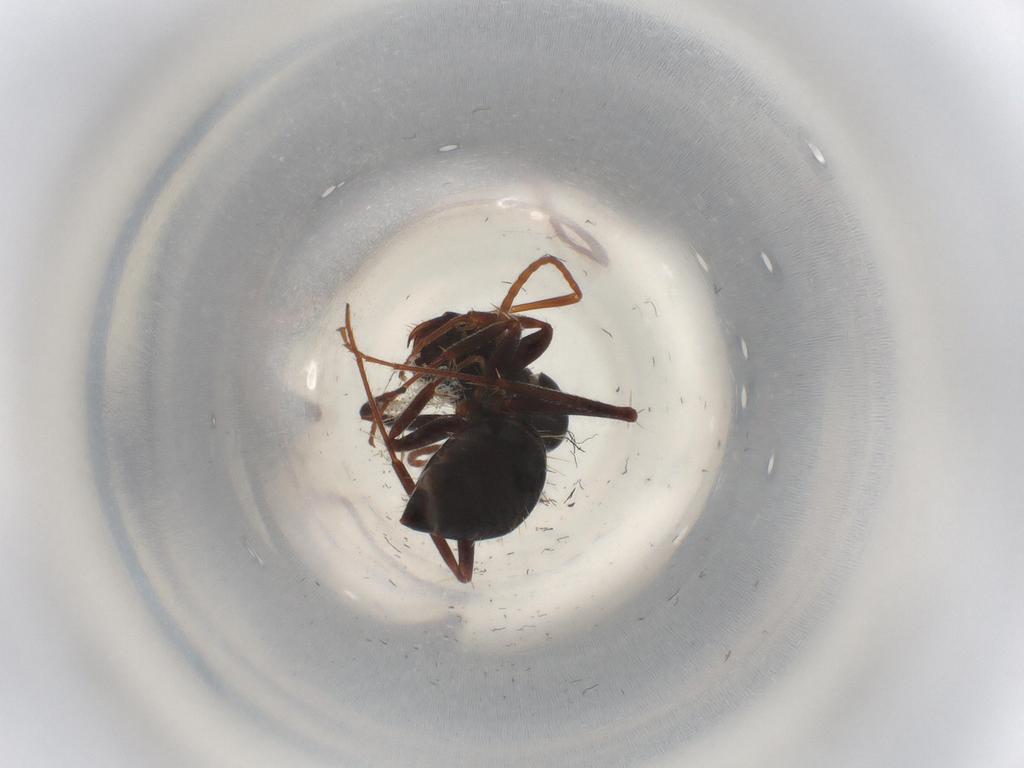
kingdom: Animalia
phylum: Arthropoda
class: Insecta
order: Hymenoptera
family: Formicidae
